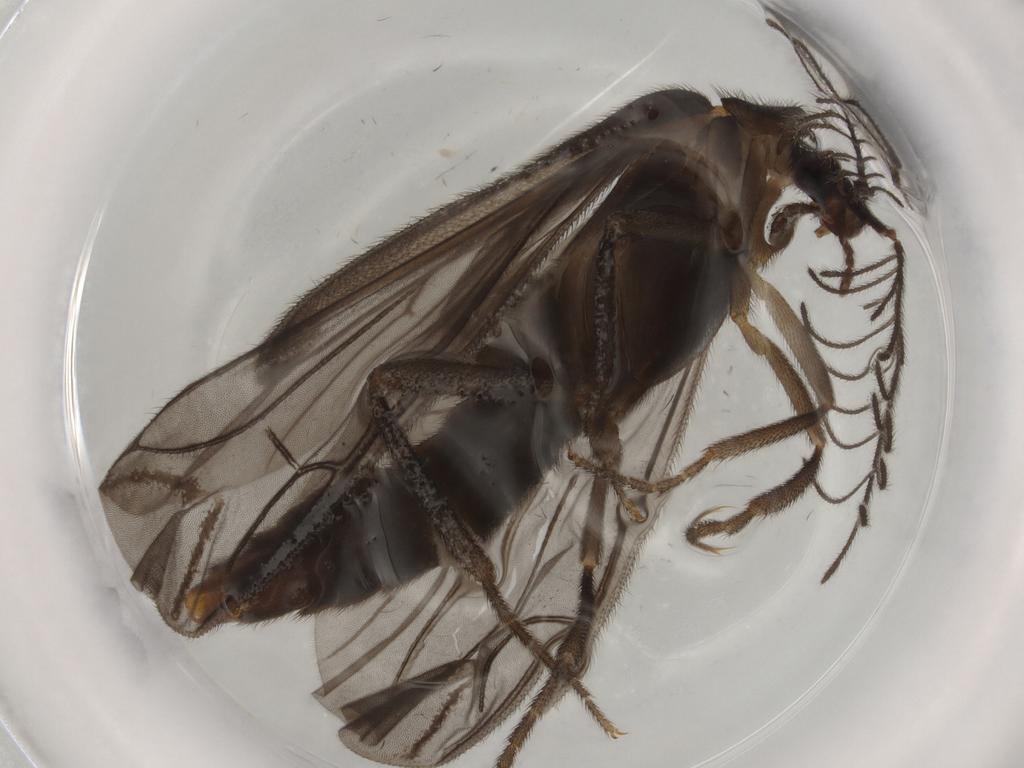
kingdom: Animalia
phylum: Arthropoda
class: Insecta
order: Coleoptera
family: Phengodidae
